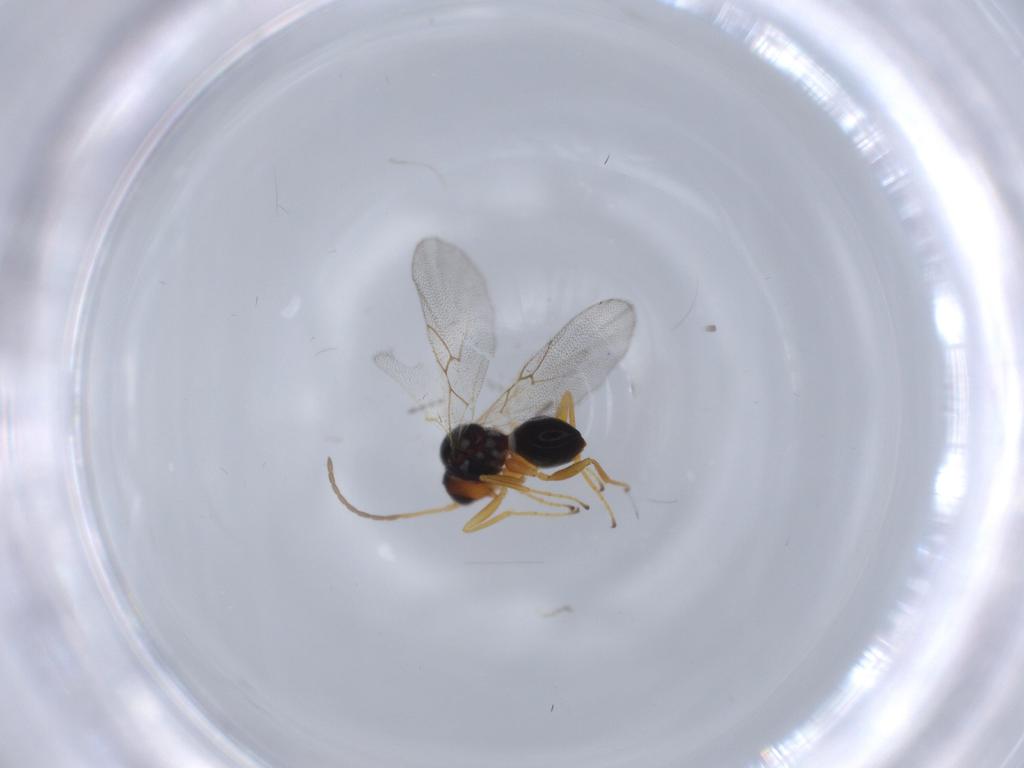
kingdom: Animalia
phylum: Arthropoda
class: Insecta
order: Hymenoptera
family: Figitidae
